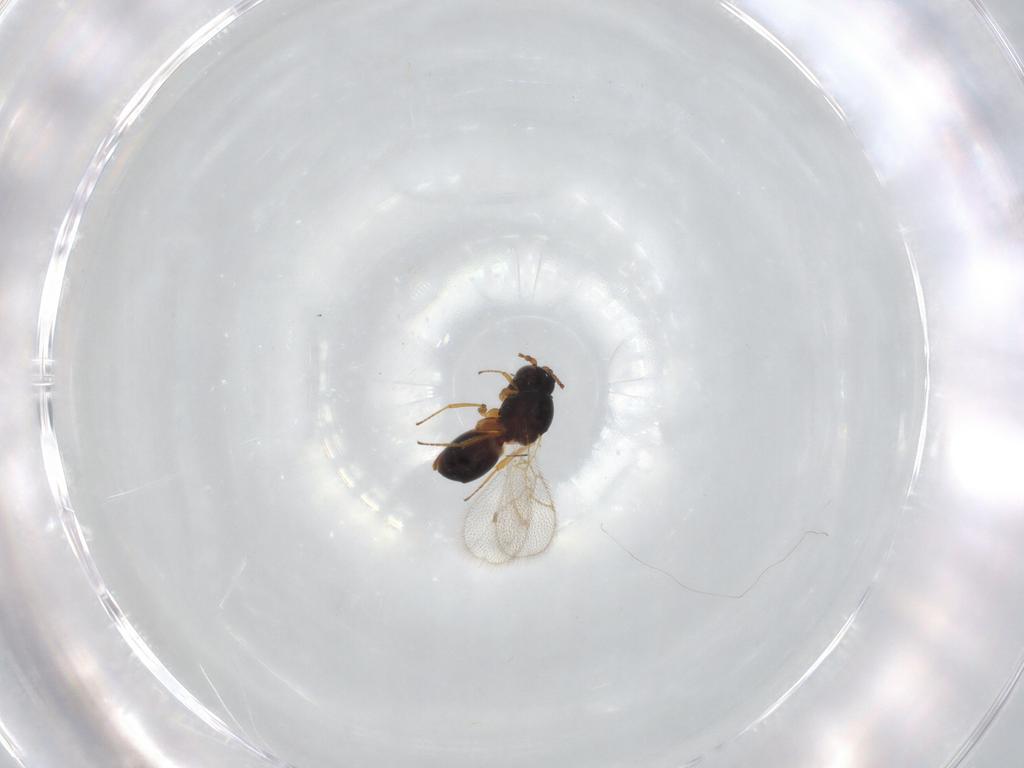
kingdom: Animalia
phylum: Arthropoda
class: Insecta
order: Hymenoptera
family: Figitidae
